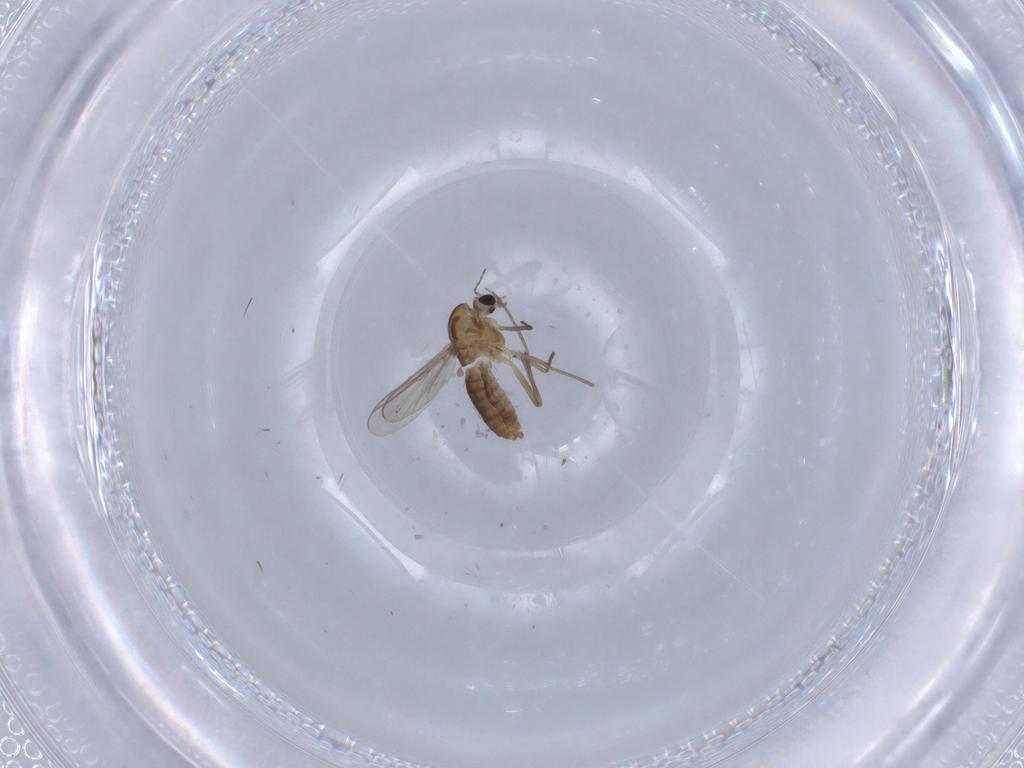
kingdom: Animalia
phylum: Arthropoda
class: Insecta
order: Diptera
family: Chironomidae
